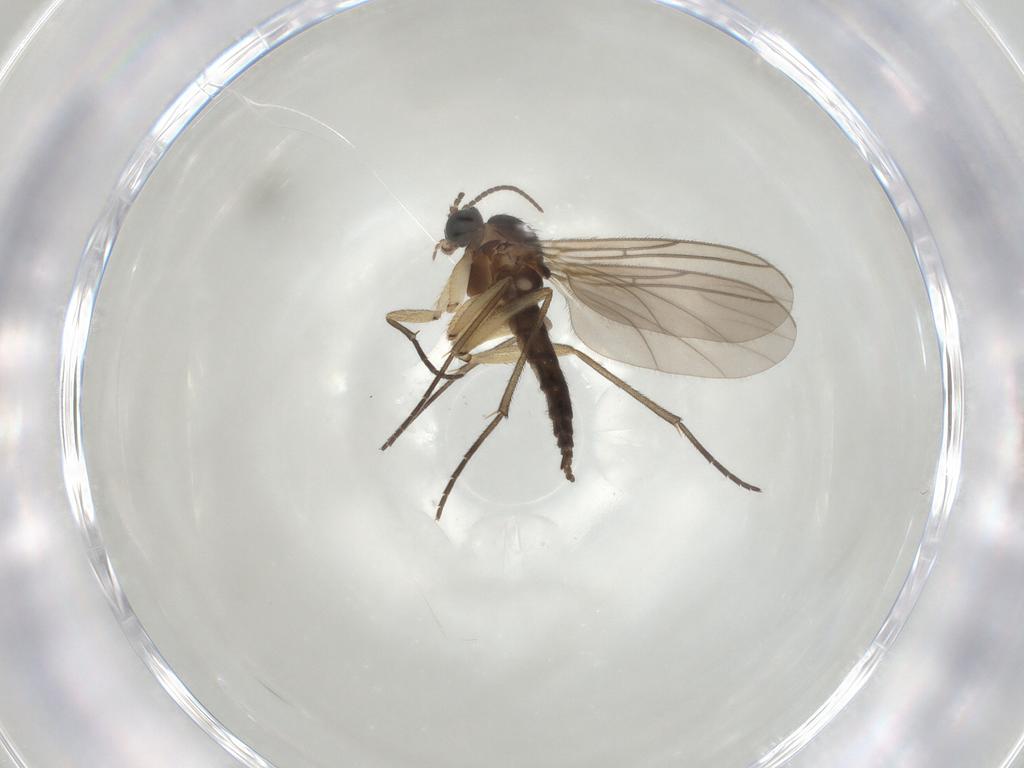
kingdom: Animalia
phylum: Arthropoda
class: Insecta
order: Diptera
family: Sciaridae
